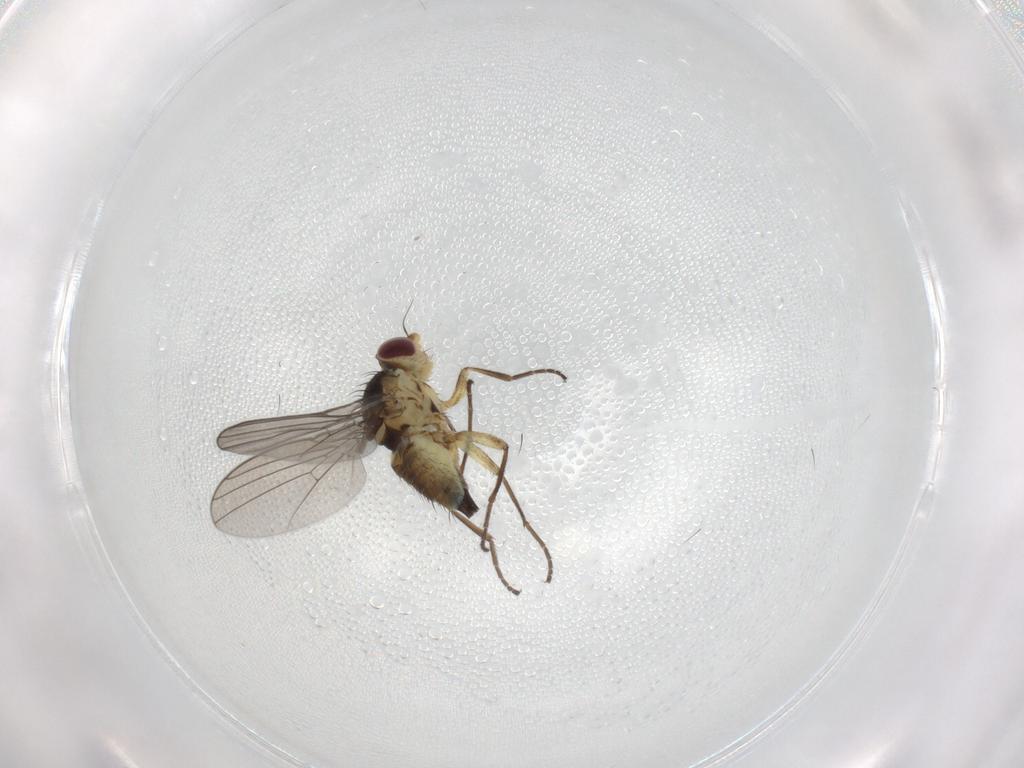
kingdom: Animalia
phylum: Arthropoda
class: Insecta
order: Diptera
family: Agromyzidae
